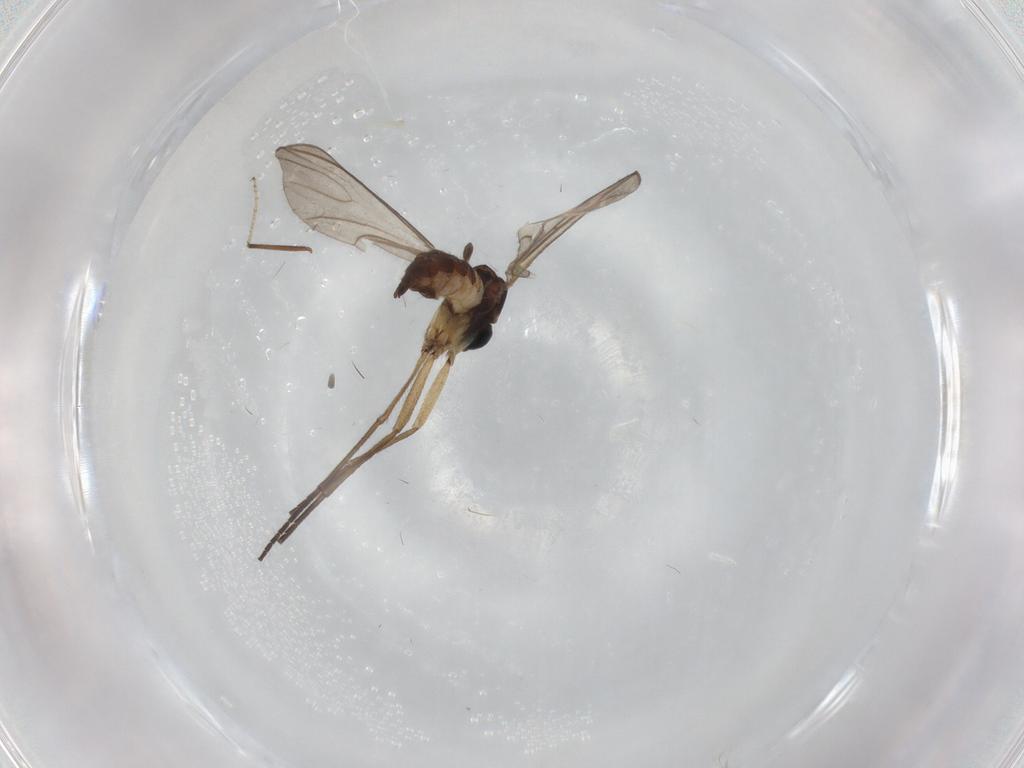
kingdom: Animalia
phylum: Arthropoda
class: Insecta
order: Diptera
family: Sciaridae
